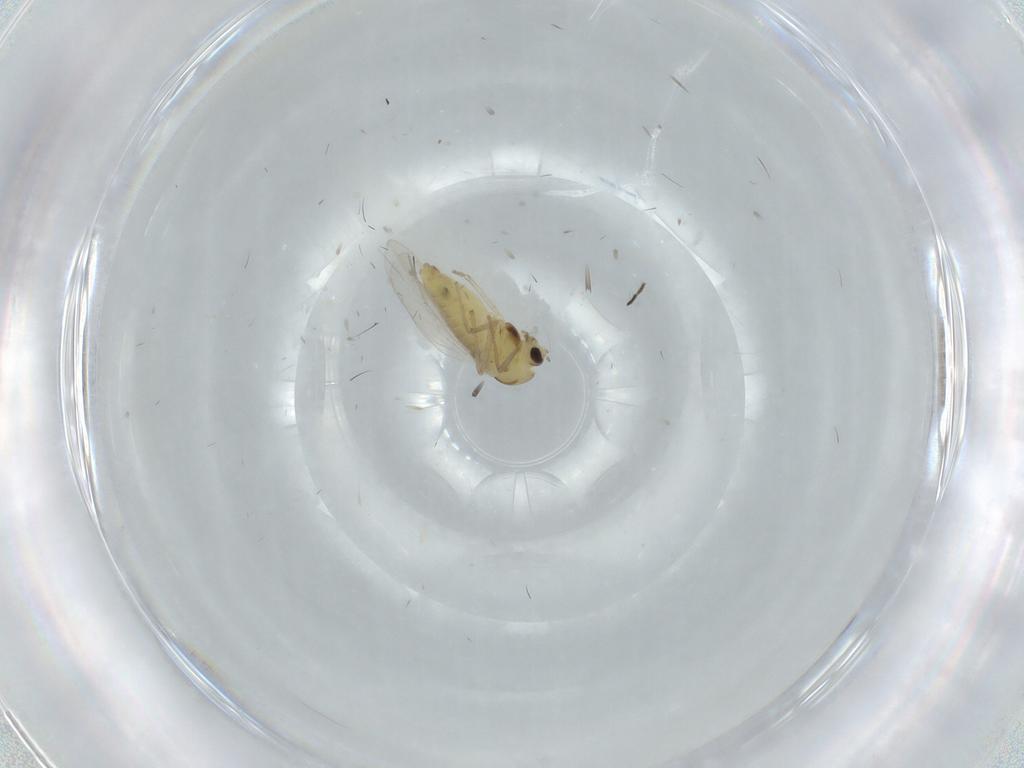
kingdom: Animalia
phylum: Arthropoda
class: Insecta
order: Diptera
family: Chironomidae
